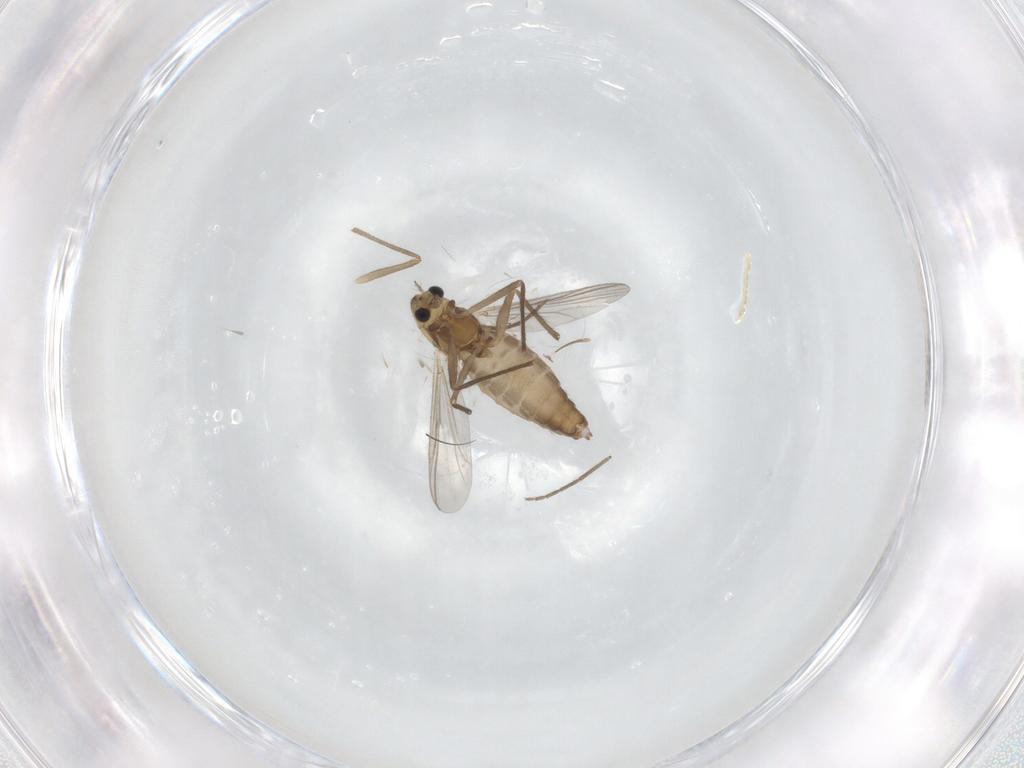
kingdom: Animalia
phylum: Arthropoda
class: Insecta
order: Diptera
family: Chironomidae
